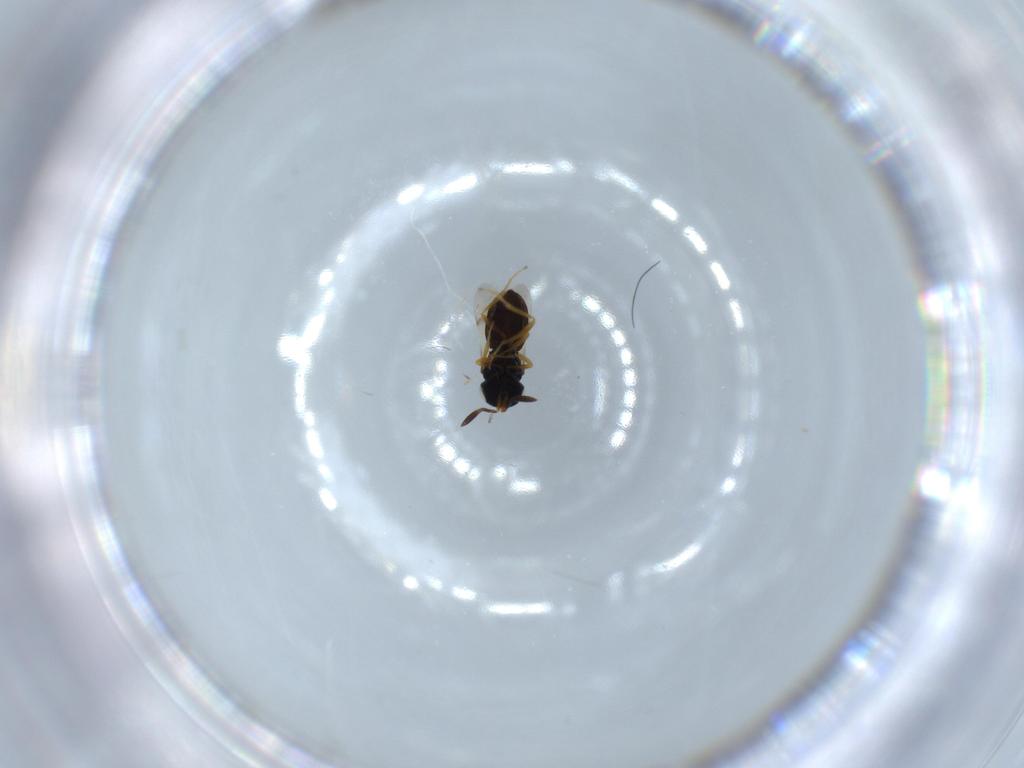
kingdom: Animalia
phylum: Arthropoda
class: Insecta
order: Hymenoptera
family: Scelionidae
